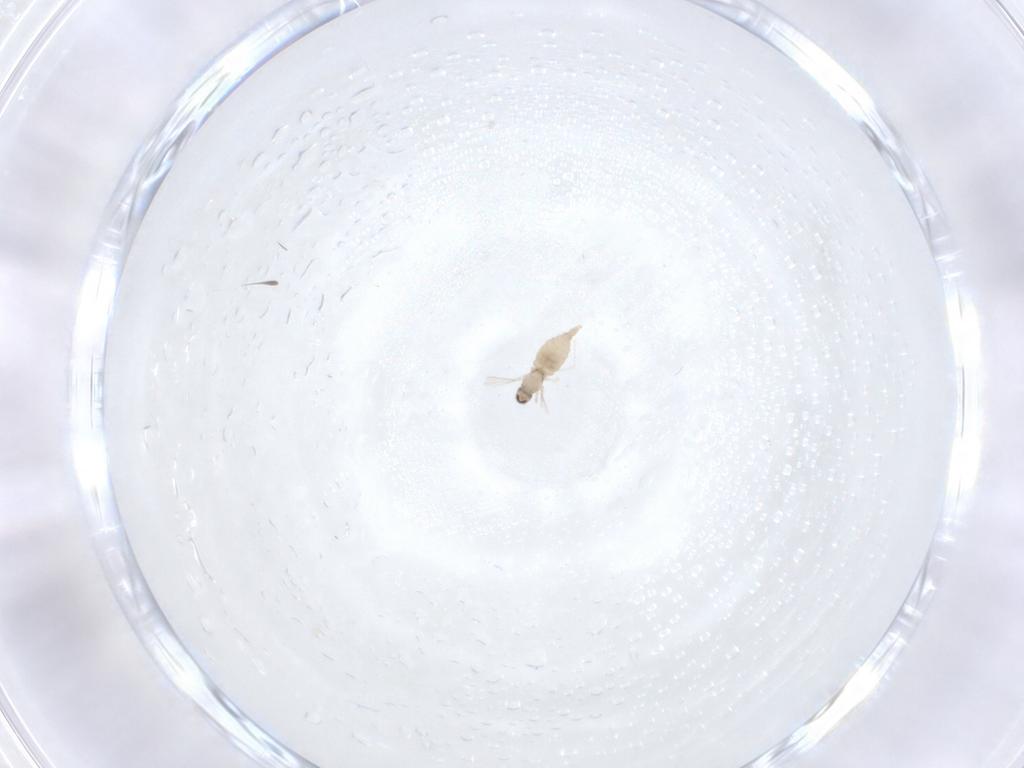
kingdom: Animalia
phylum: Arthropoda
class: Insecta
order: Diptera
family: Cecidomyiidae
